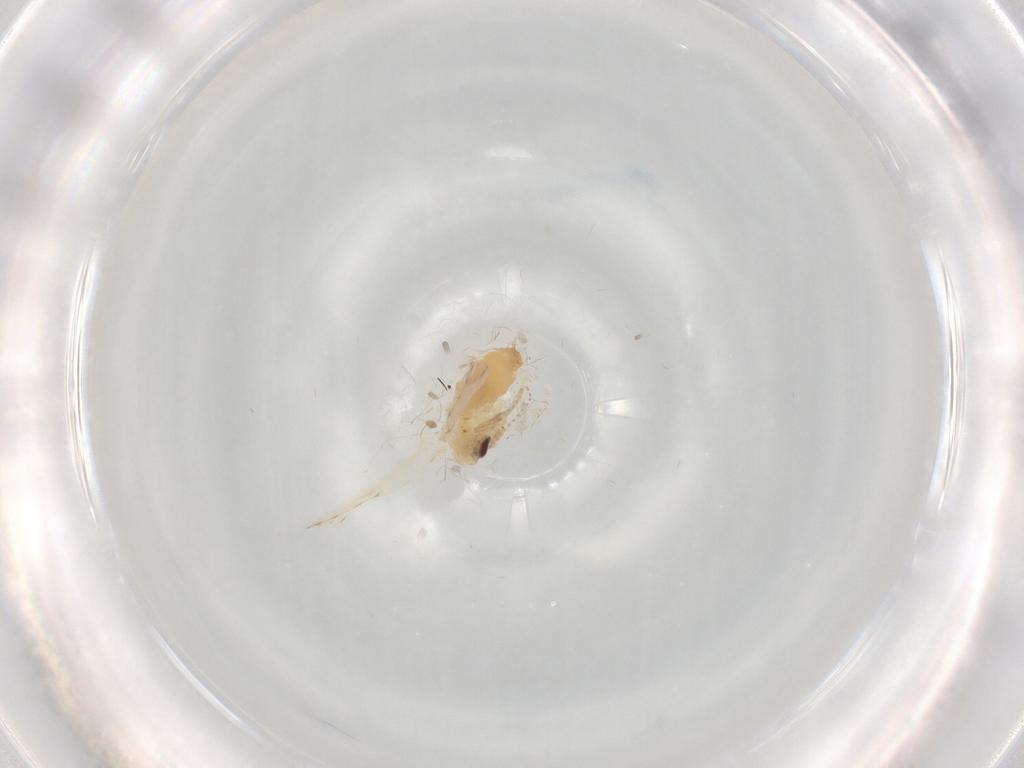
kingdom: Animalia
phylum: Arthropoda
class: Insecta
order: Diptera
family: Psychodidae
